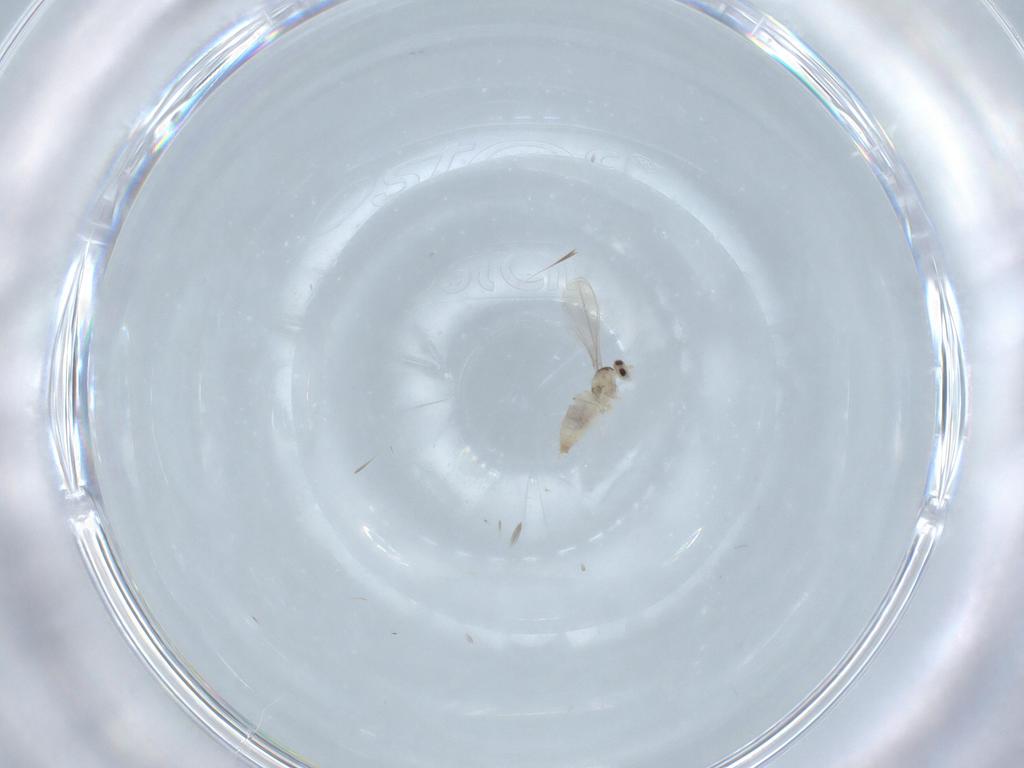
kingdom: Animalia
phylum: Arthropoda
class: Insecta
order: Diptera
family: Cecidomyiidae
